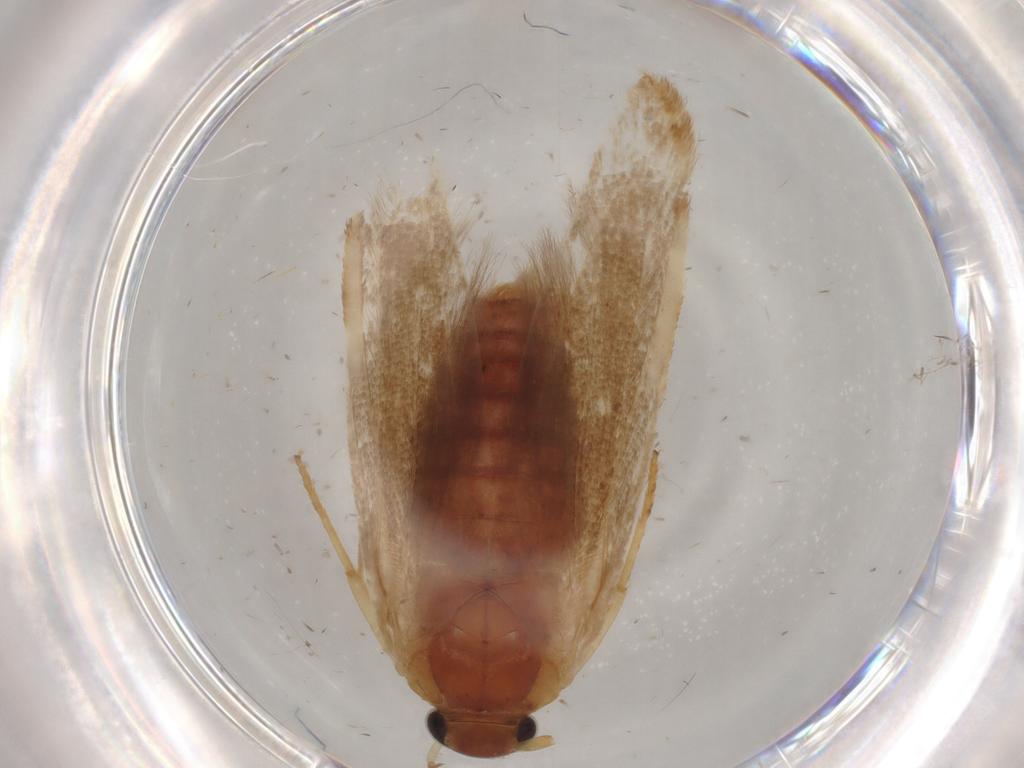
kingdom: Animalia
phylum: Arthropoda
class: Insecta
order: Lepidoptera
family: Blastobasidae
